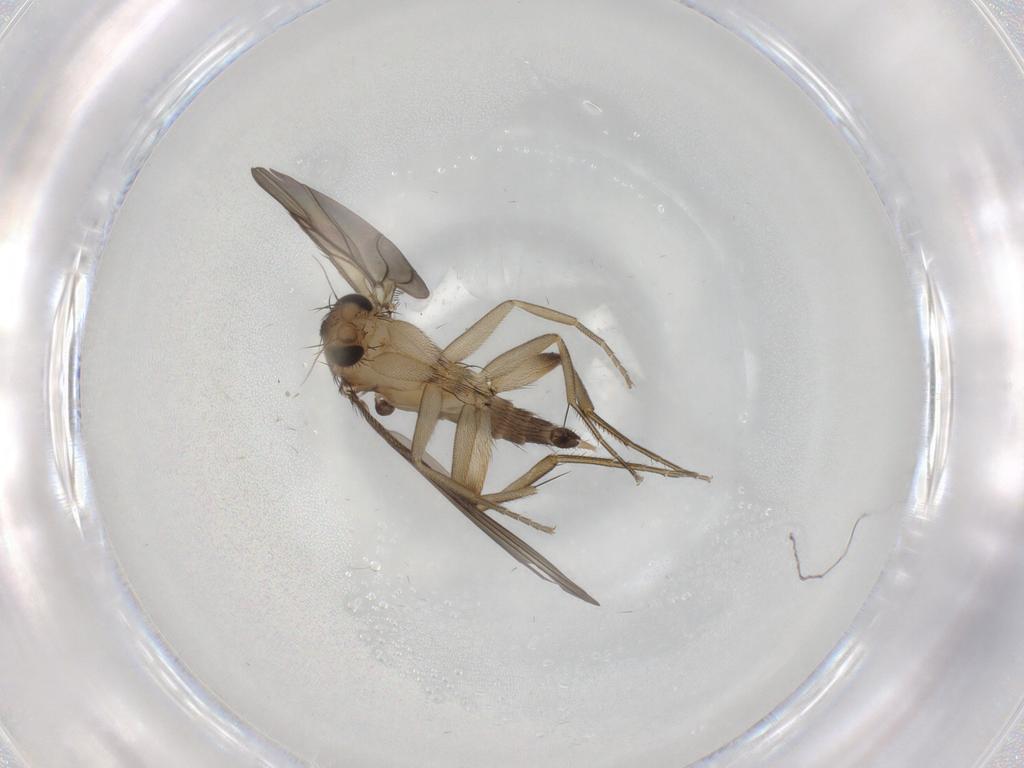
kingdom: Animalia
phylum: Arthropoda
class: Insecta
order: Diptera
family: Phoridae
